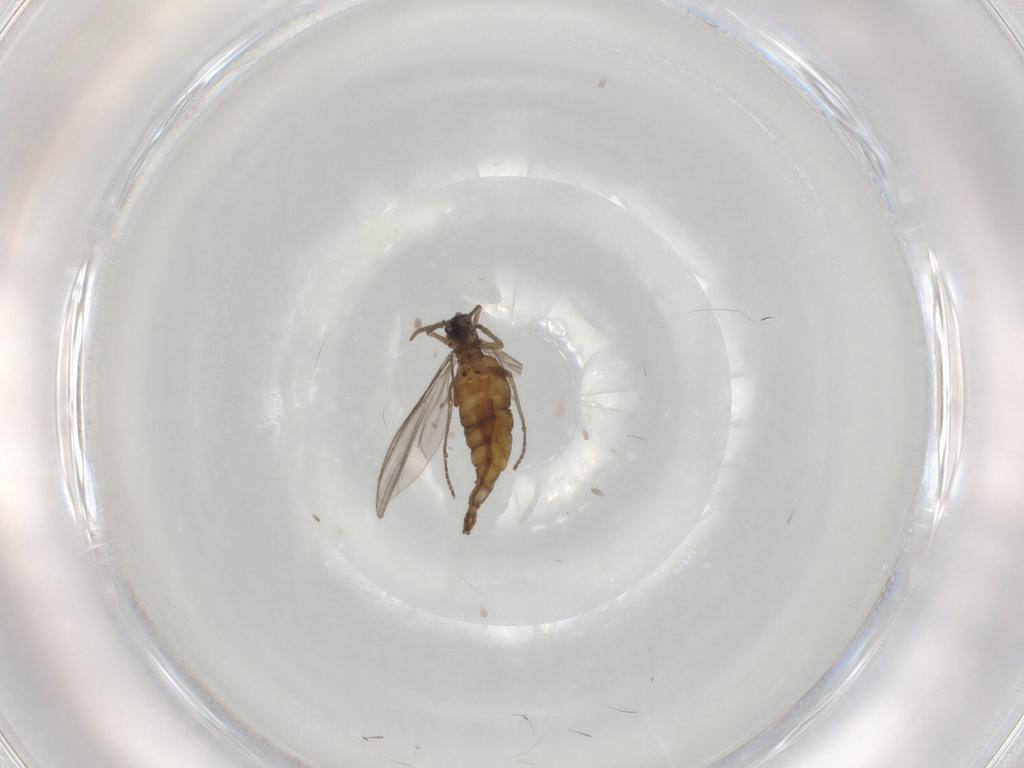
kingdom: Animalia
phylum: Arthropoda
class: Insecta
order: Diptera
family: Sciaridae
